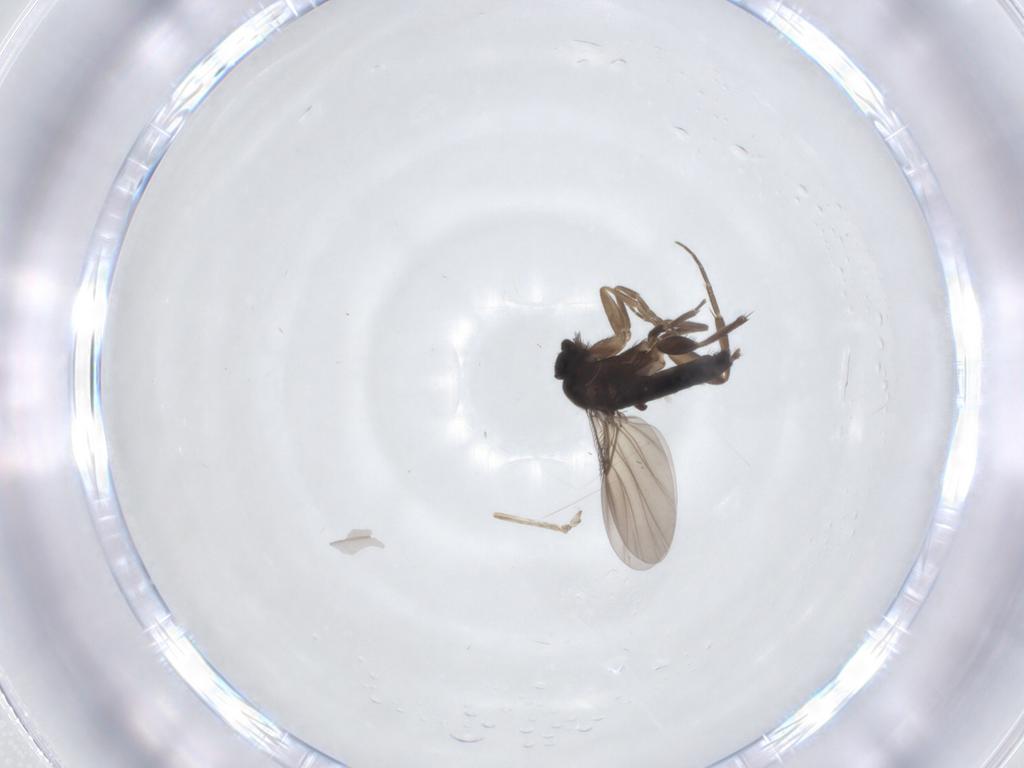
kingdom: Animalia
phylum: Arthropoda
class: Insecta
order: Diptera
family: Phoridae
